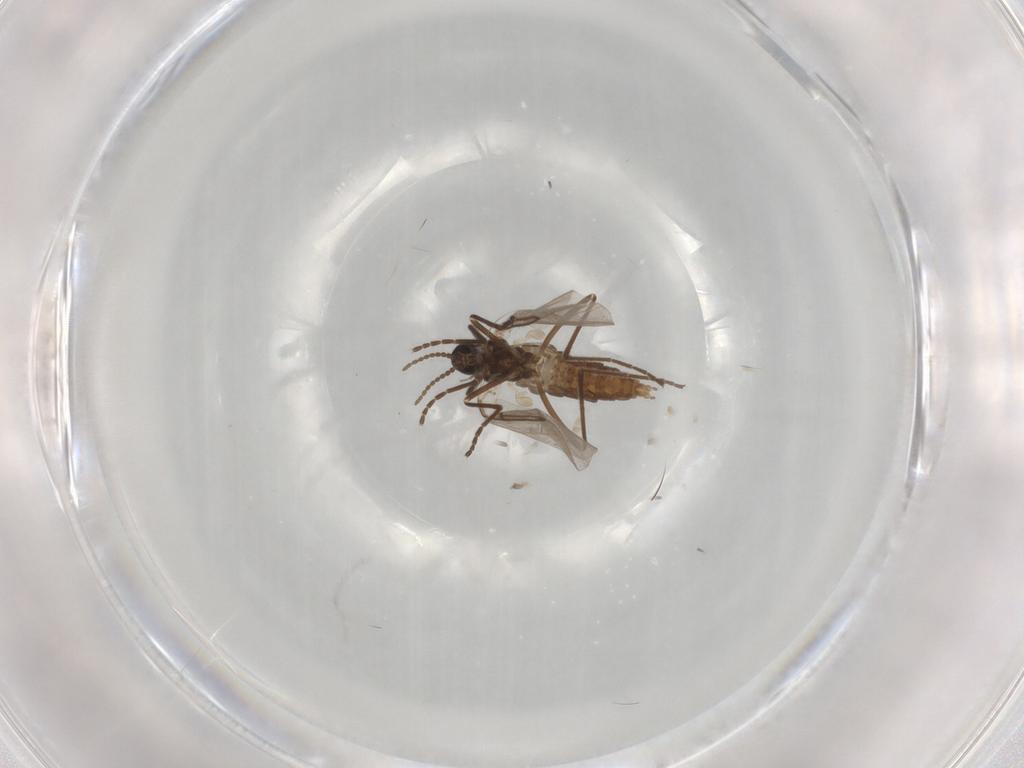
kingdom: Animalia
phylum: Arthropoda
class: Insecta
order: Diptera
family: Cecidomyiidae
